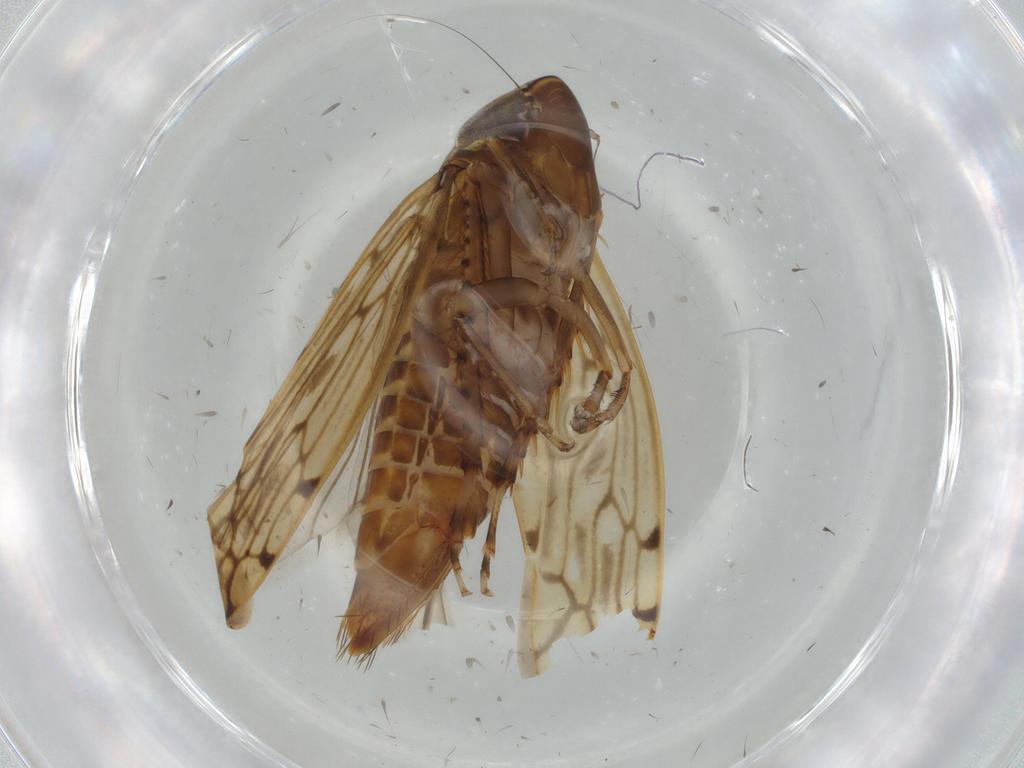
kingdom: Animalia
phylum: Arthropoda
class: Insecta
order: Hemiptera
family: Cicadellidae
